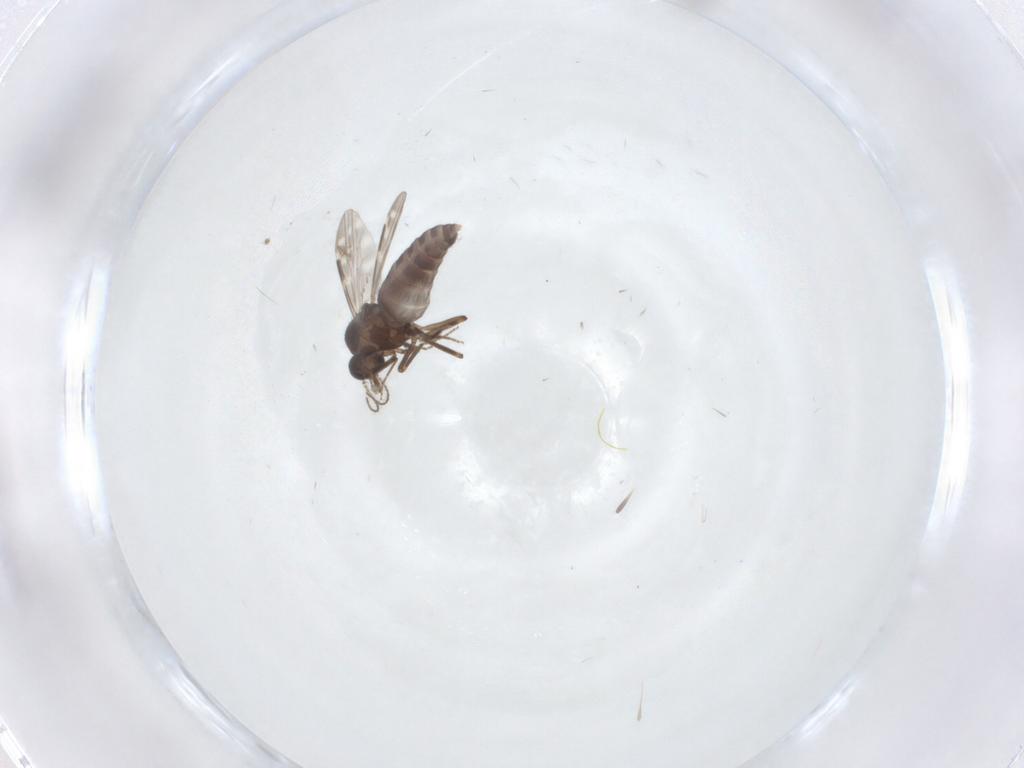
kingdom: Animalia
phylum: Arthropoda
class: Insecta
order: Diptera
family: Ceratopogonidae
